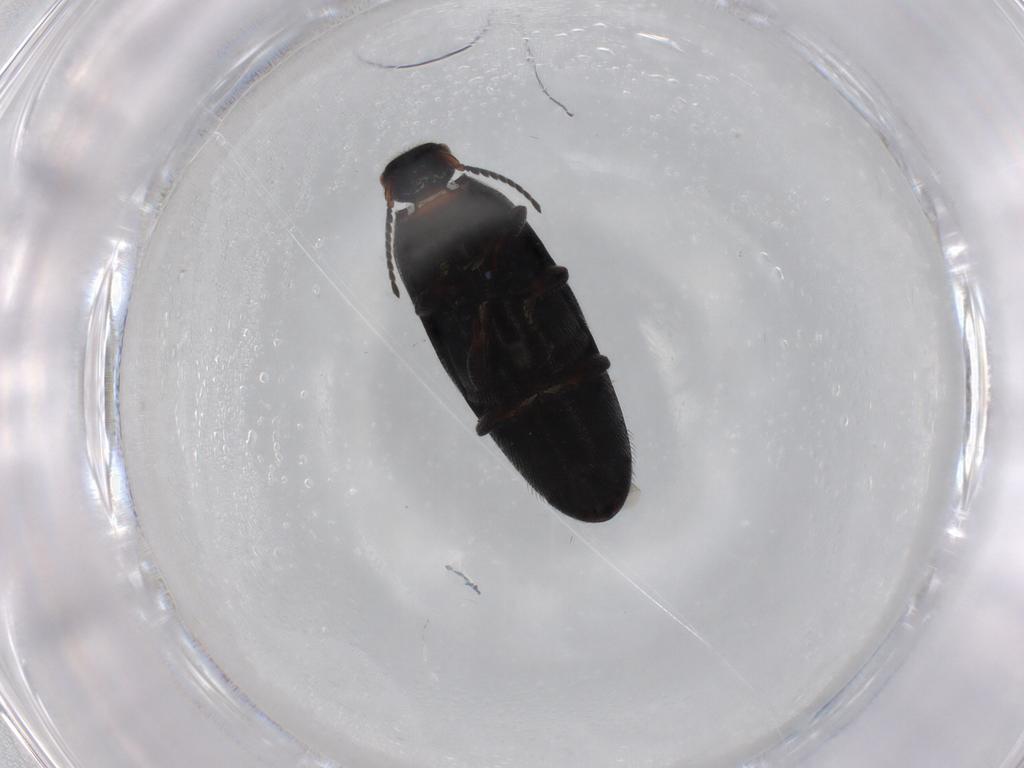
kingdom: Animalia
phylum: Arthropoda
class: Insecta
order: Coleoptera
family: Elateridae
